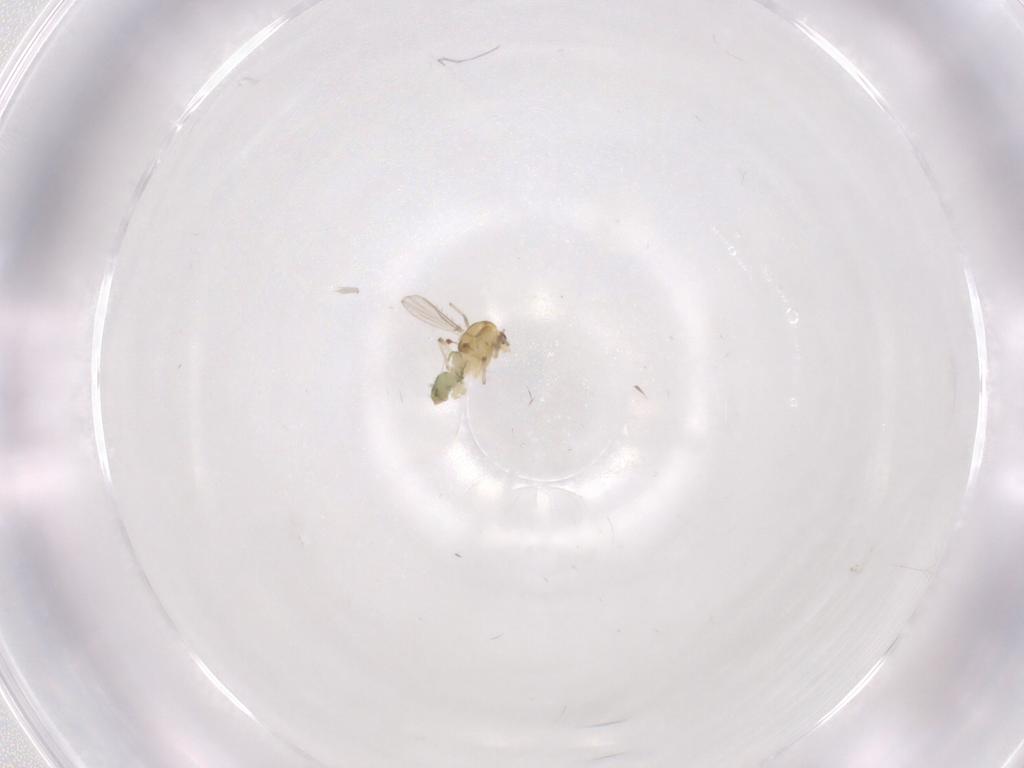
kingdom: Animalia
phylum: Arthropoda
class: Insecta
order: Diptera
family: Chironomidae
